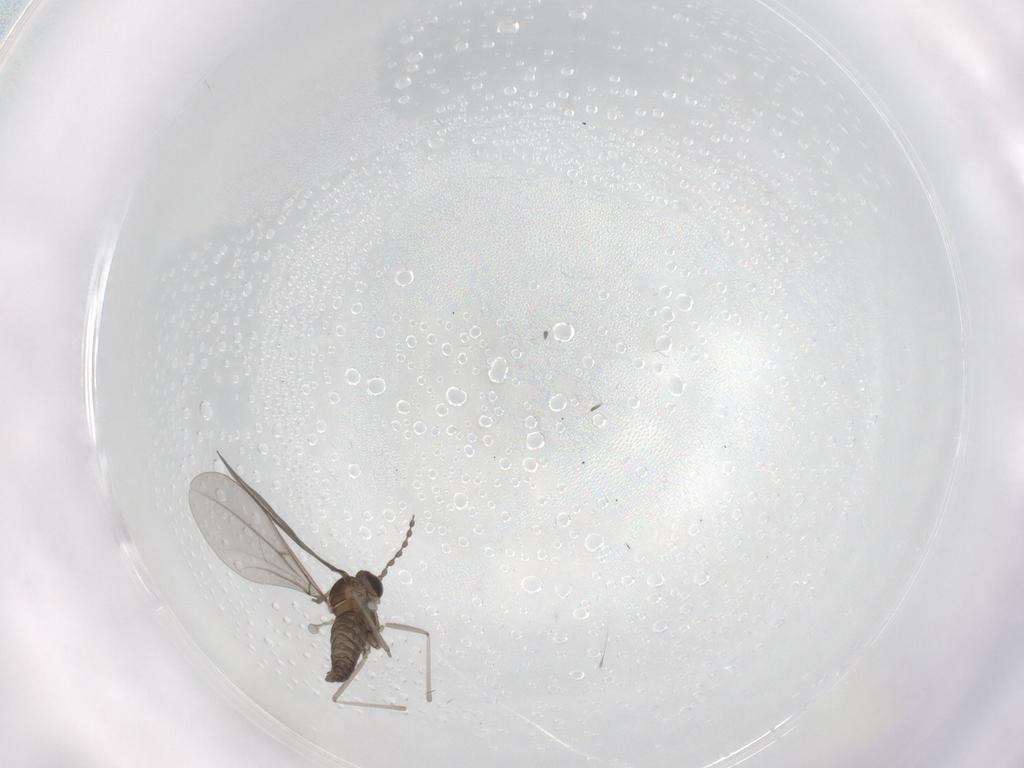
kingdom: Animalia
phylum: Arthropoda
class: Insecta
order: Diptera
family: Cecidomyiidae
